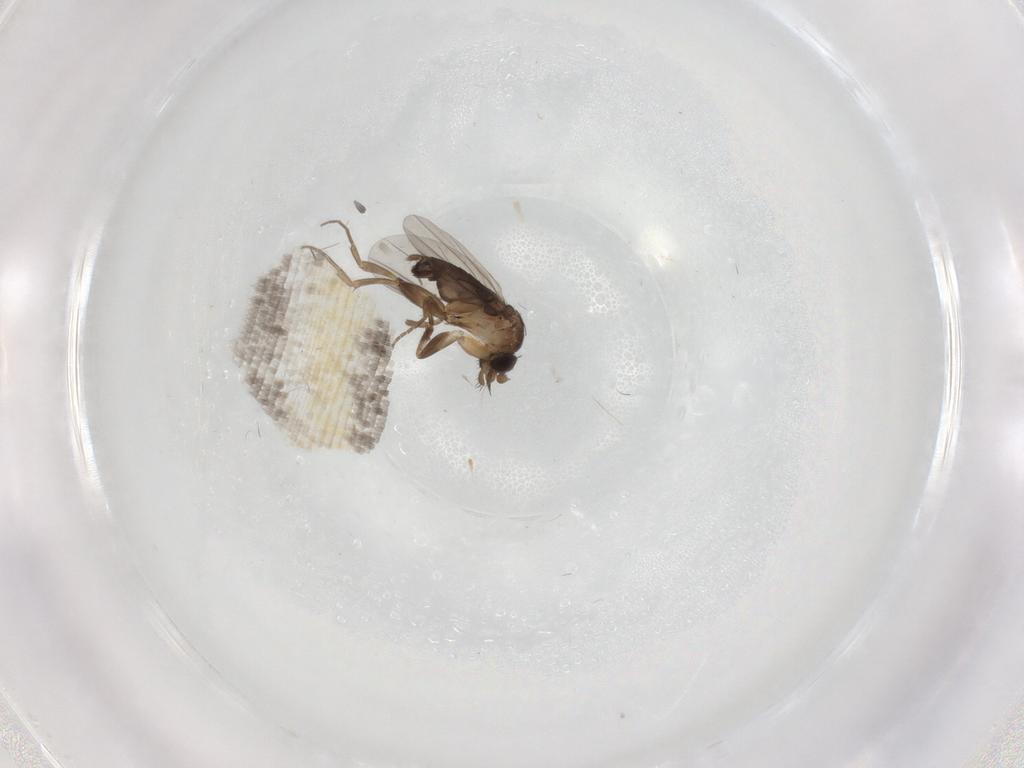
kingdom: Animalia
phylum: Arthropoda
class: Insecta
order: Diptera
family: Phoridae
